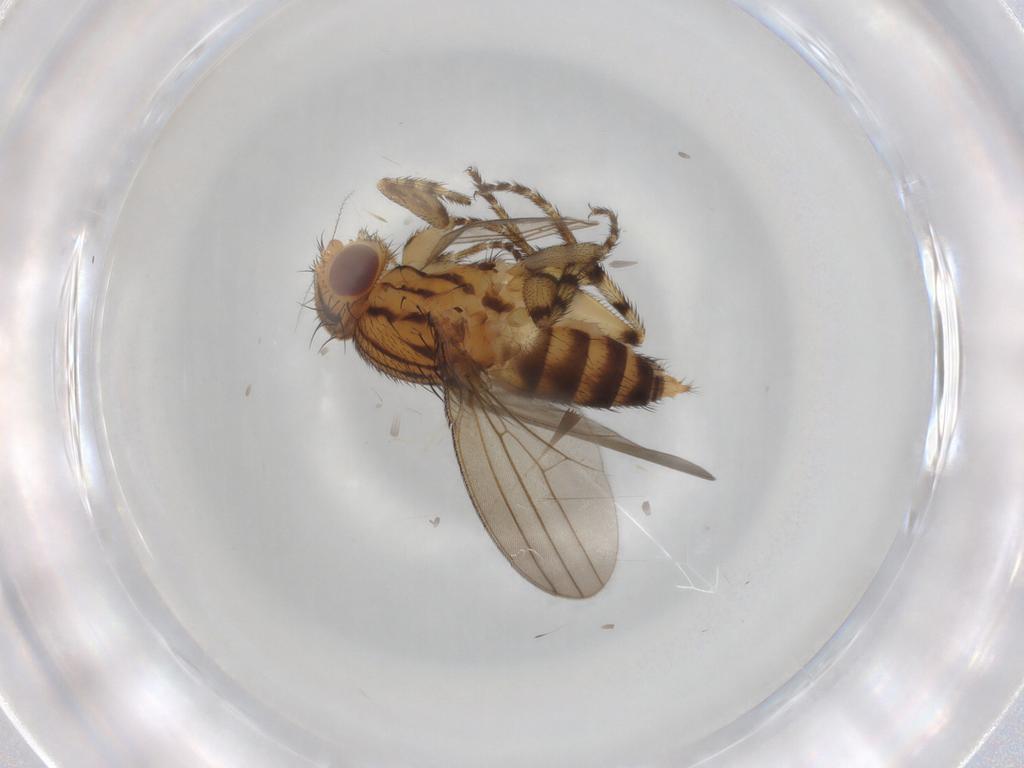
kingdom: Animalia
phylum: Arthropoda
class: Insecta
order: Diptera
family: Milichiidae
